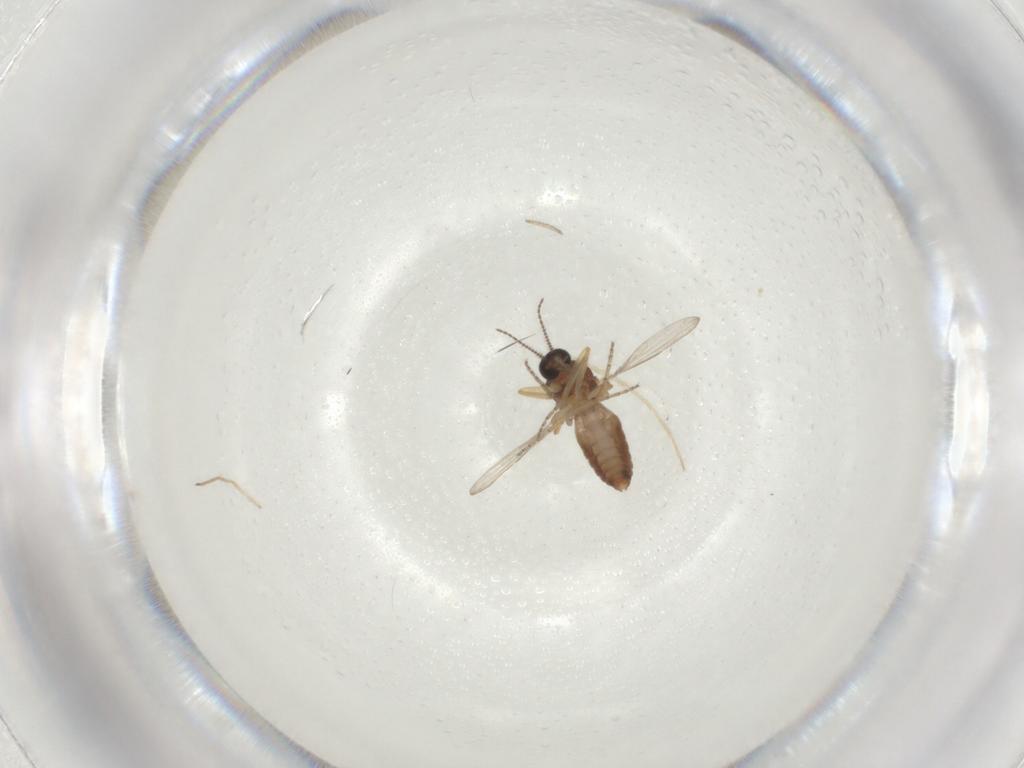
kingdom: Animalia
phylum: Arthropoda
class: Insecta
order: Diptera
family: Ceratopogonidae
